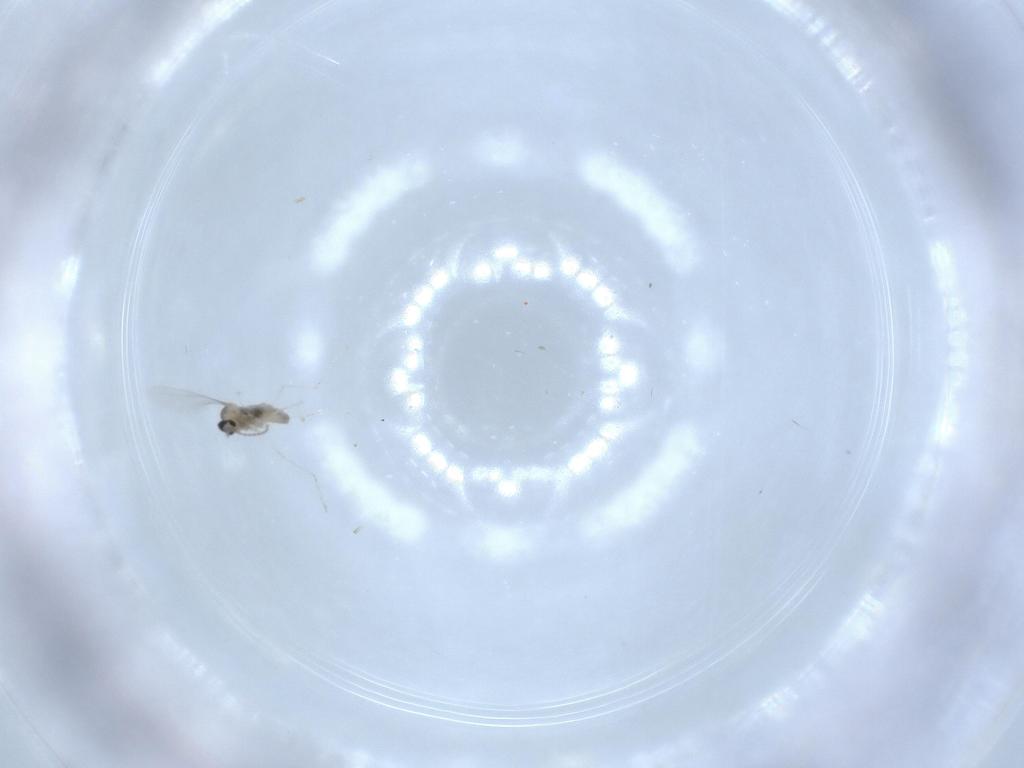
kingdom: Animalia
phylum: Arthropoda
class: Insecta
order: Diptera
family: Cecidomyiidae
